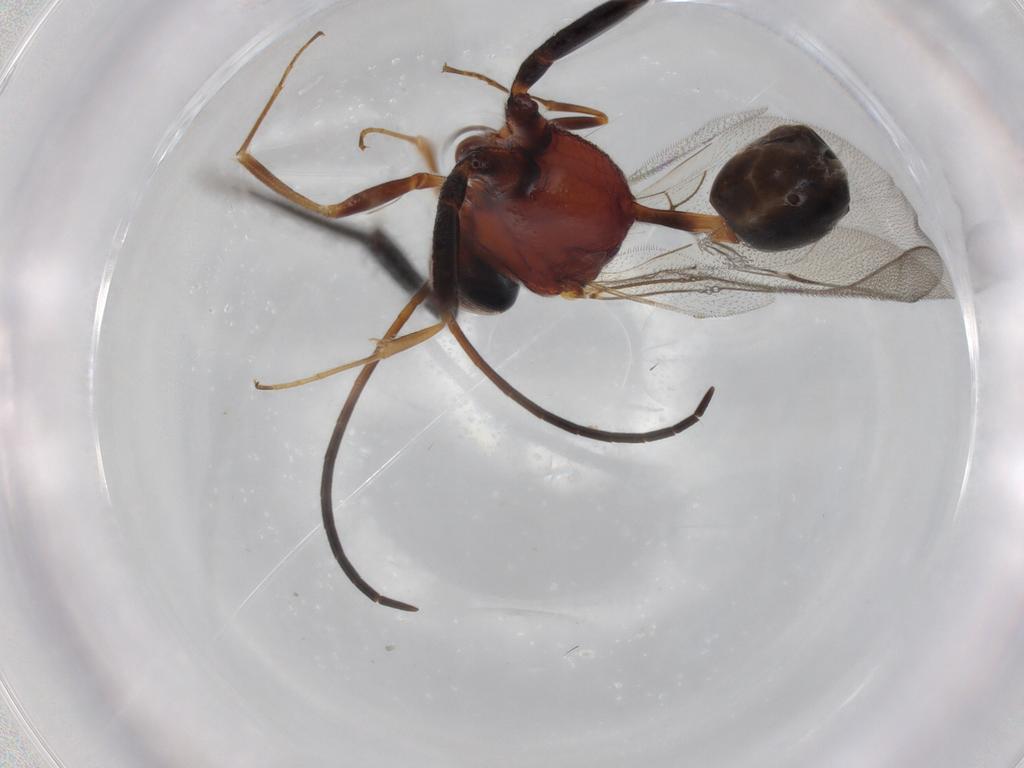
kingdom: Animalia
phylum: Arthropoda
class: Insecta
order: Hymenoptera
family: Evaniidae
